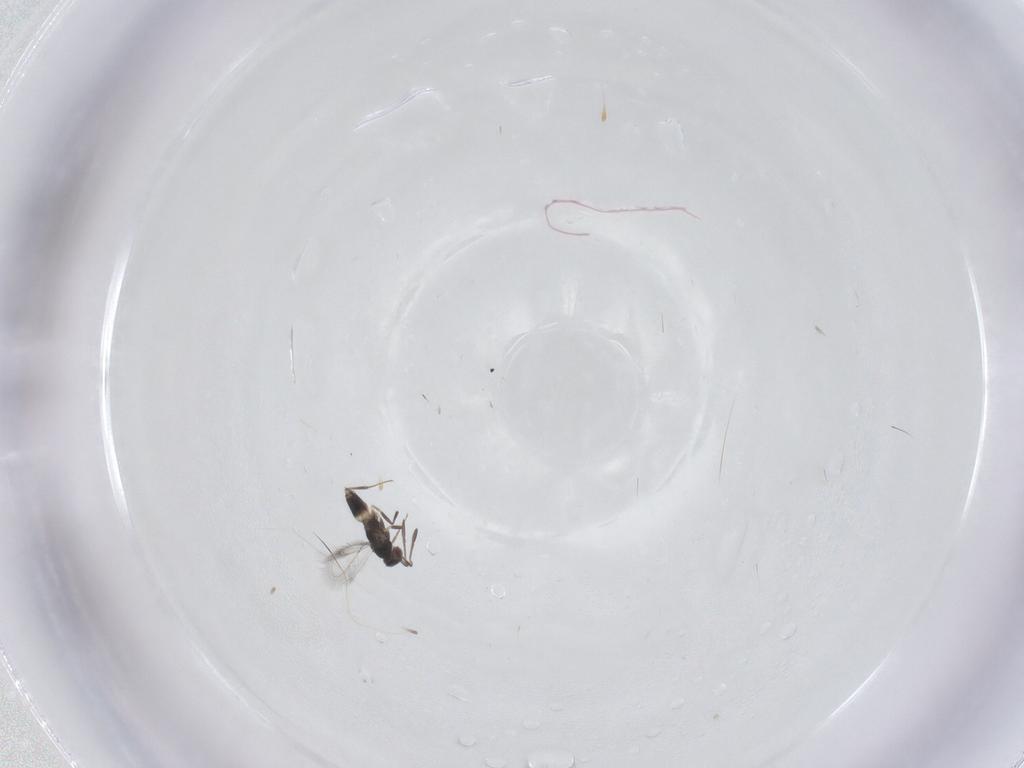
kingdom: Animalia
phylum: Arthropoda
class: Insecta
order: Hymenoptera
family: Mymaridae
